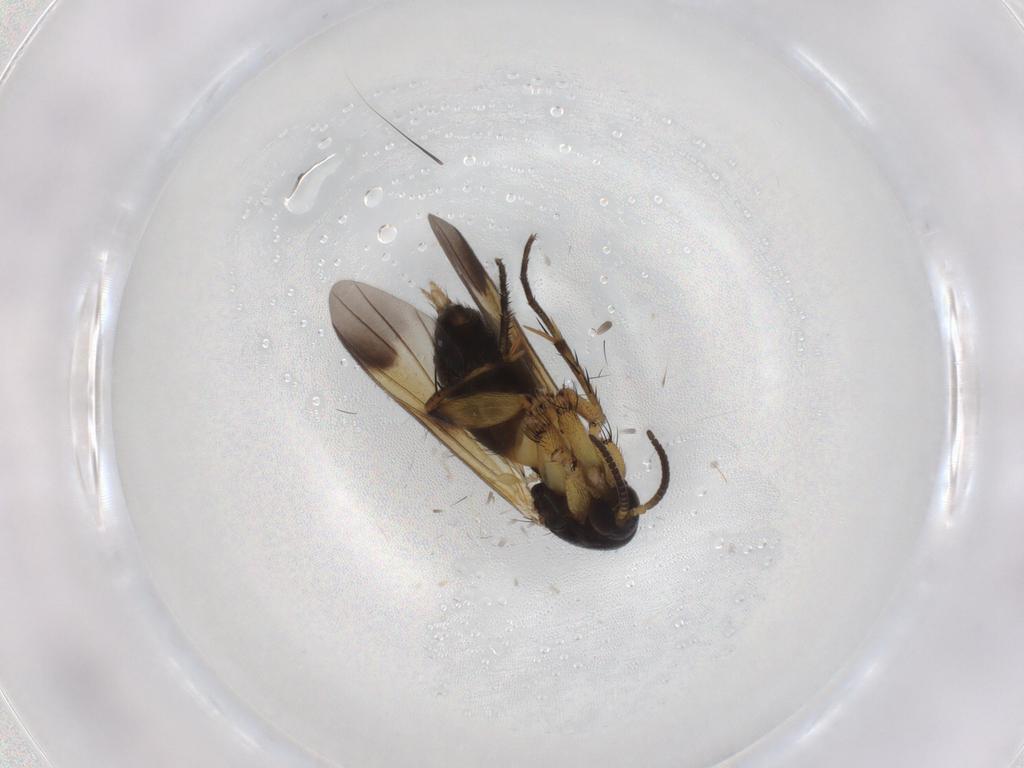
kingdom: Animalia
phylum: Arthropoda
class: Insecta
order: Diptera
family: Mycetophilidae
